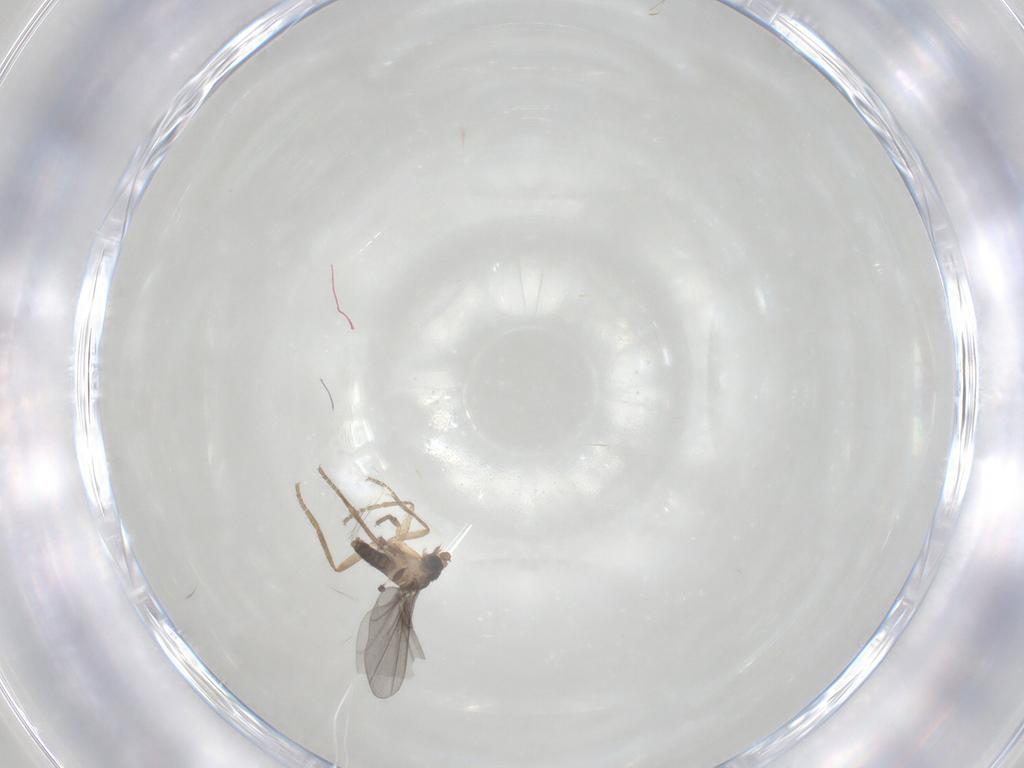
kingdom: Animalia
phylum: Arthropoda
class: Insecta
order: Diptera
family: Phoridae
